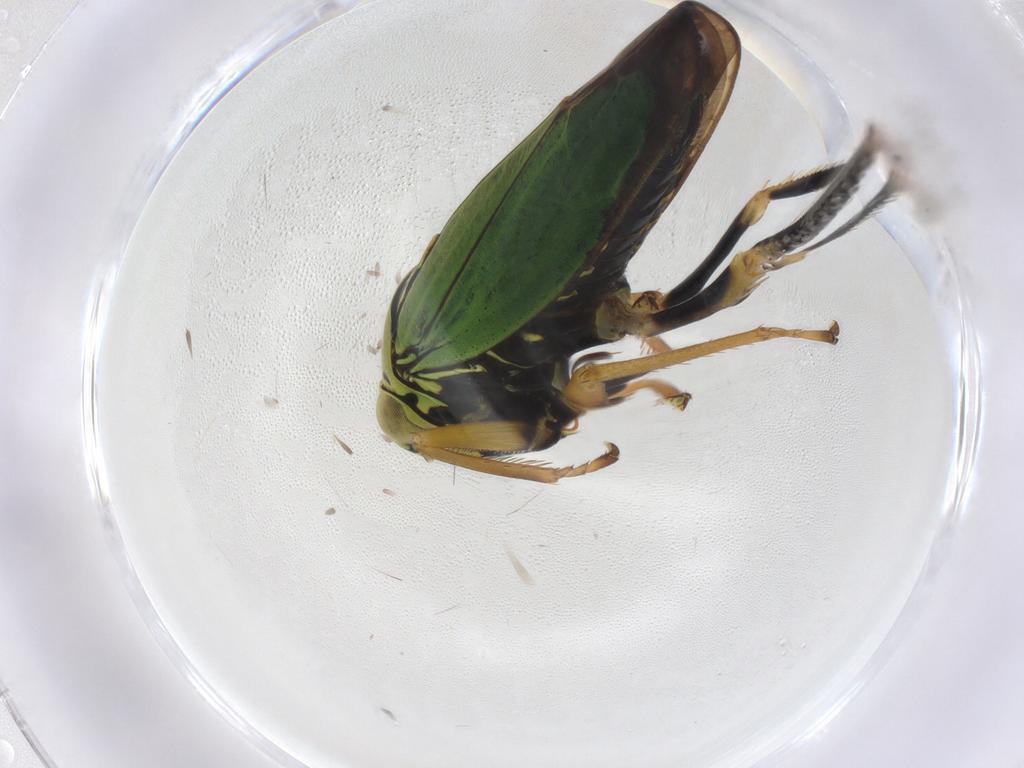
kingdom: Animalia
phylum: Arthropoda
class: Insecta
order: Hemiptera
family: Cicadellidae
